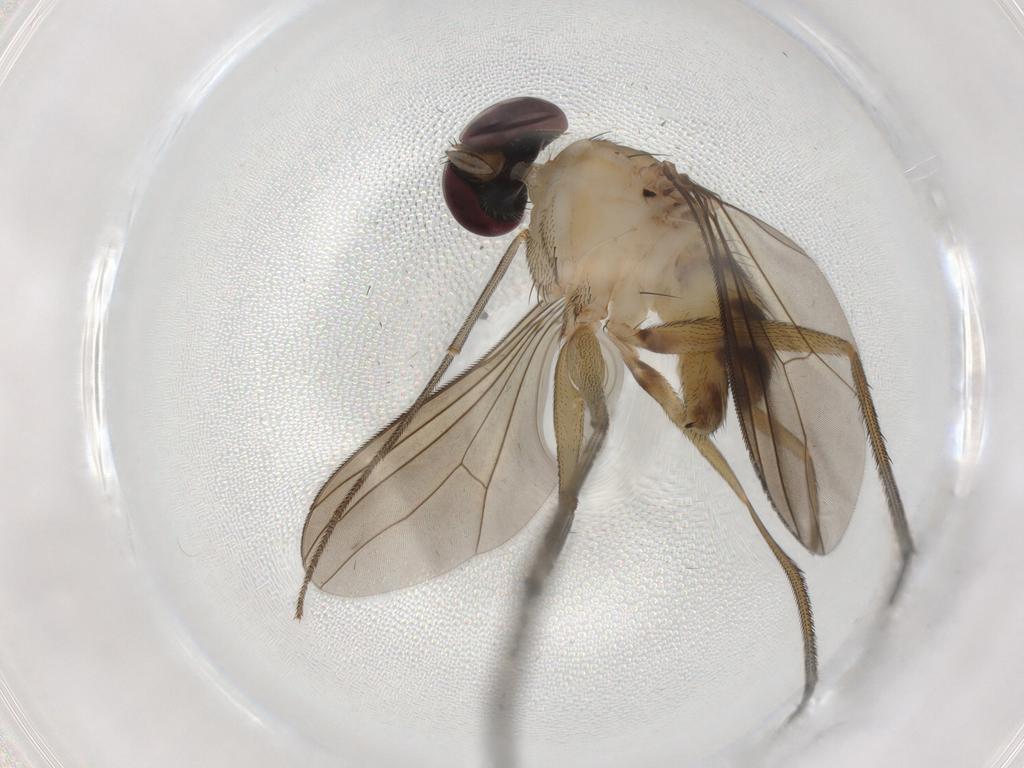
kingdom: Animalia
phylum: Arthropoda
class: Insecta
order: Diptera
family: Dolichopodidae
